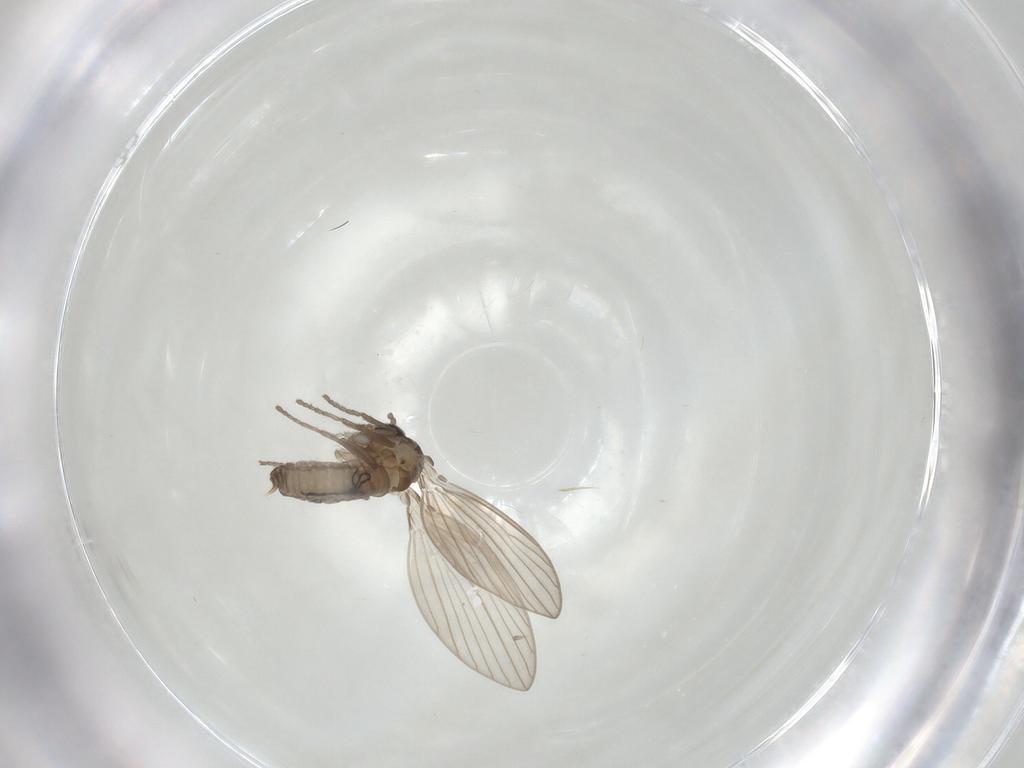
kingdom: Animalia
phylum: Arthropoda
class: Insecta
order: Diptera
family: Psychodidae
